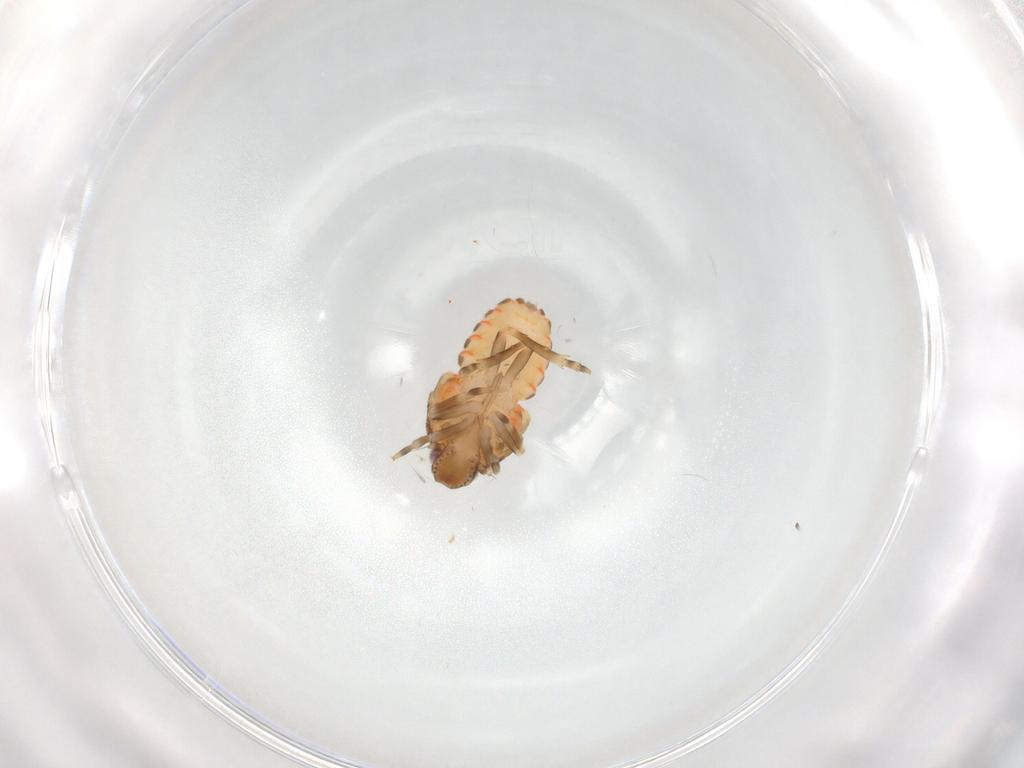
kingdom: Animalia
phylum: Arthropoda
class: Insecta
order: Hemiptera
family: Flatidae
